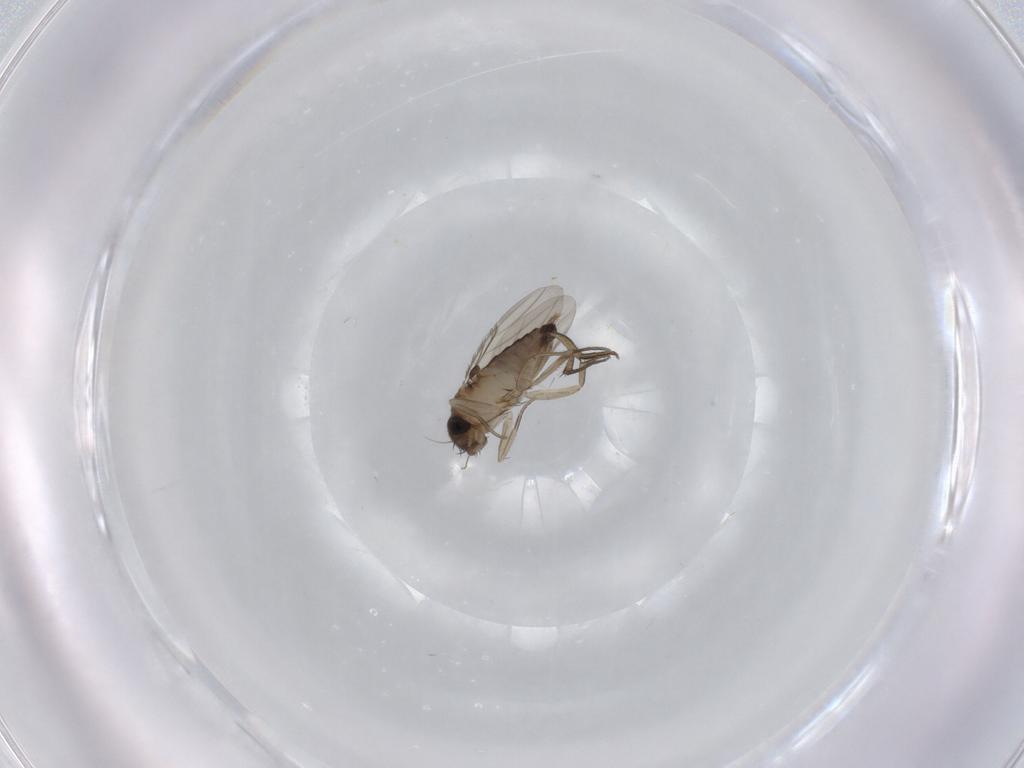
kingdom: Animalia
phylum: Arthropoda
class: Insecta
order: Diptera
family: Phoridae
